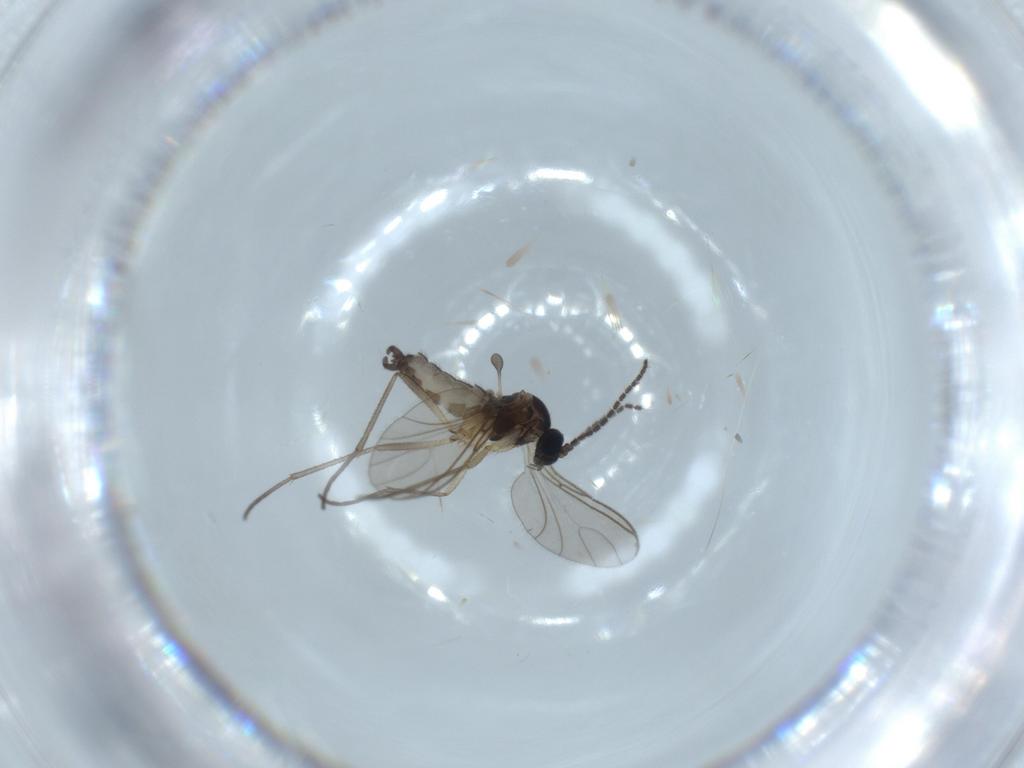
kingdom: Animalia
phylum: Arthropoda
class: Insecta
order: Diptera
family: Sciaridae
